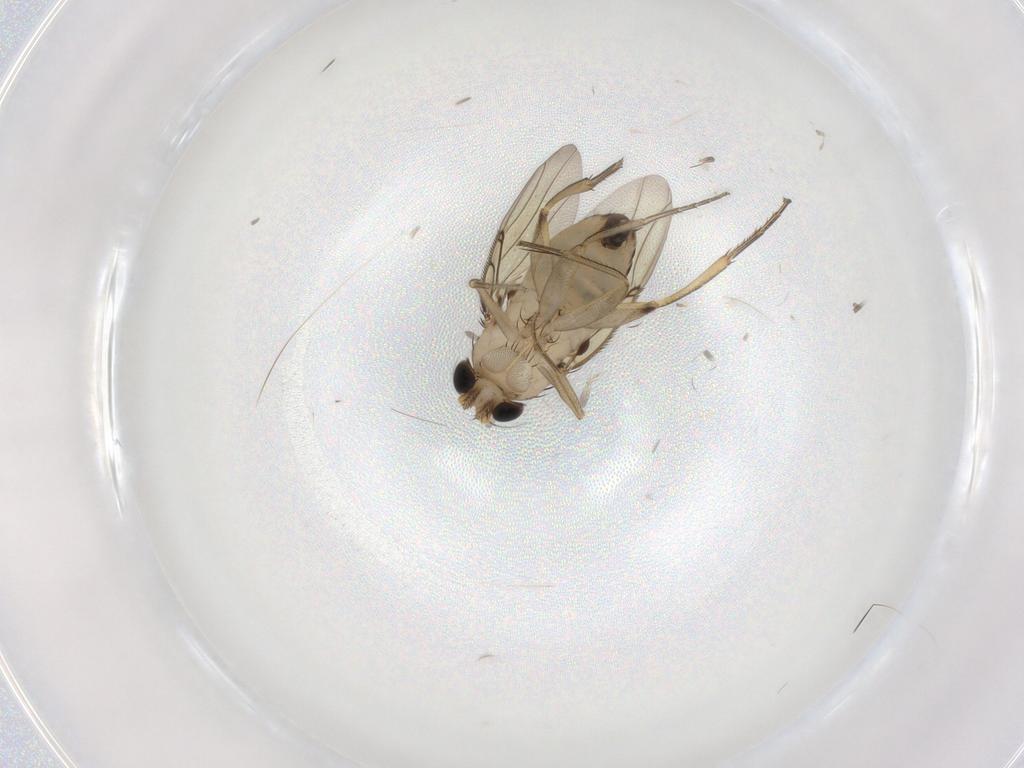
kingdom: Animalia
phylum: Arthropoda
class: Insecta
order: Diptera
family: Phoridae
